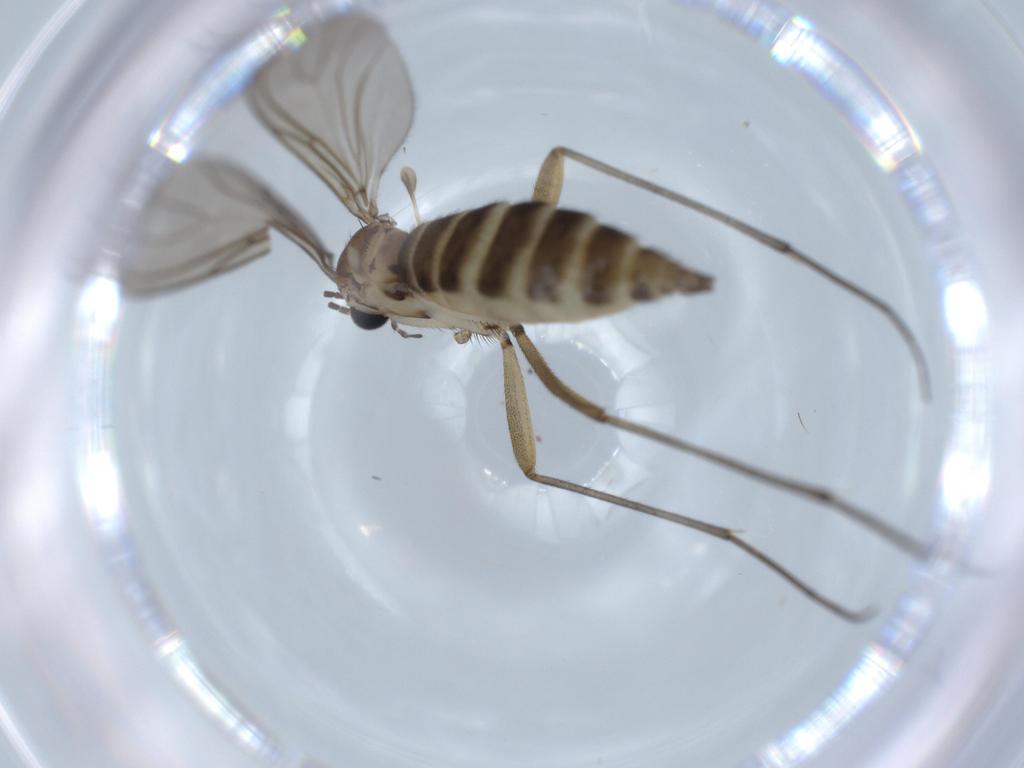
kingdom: Animalia
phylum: Arthropoda
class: Insecta
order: Diptera
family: Sciaridae
